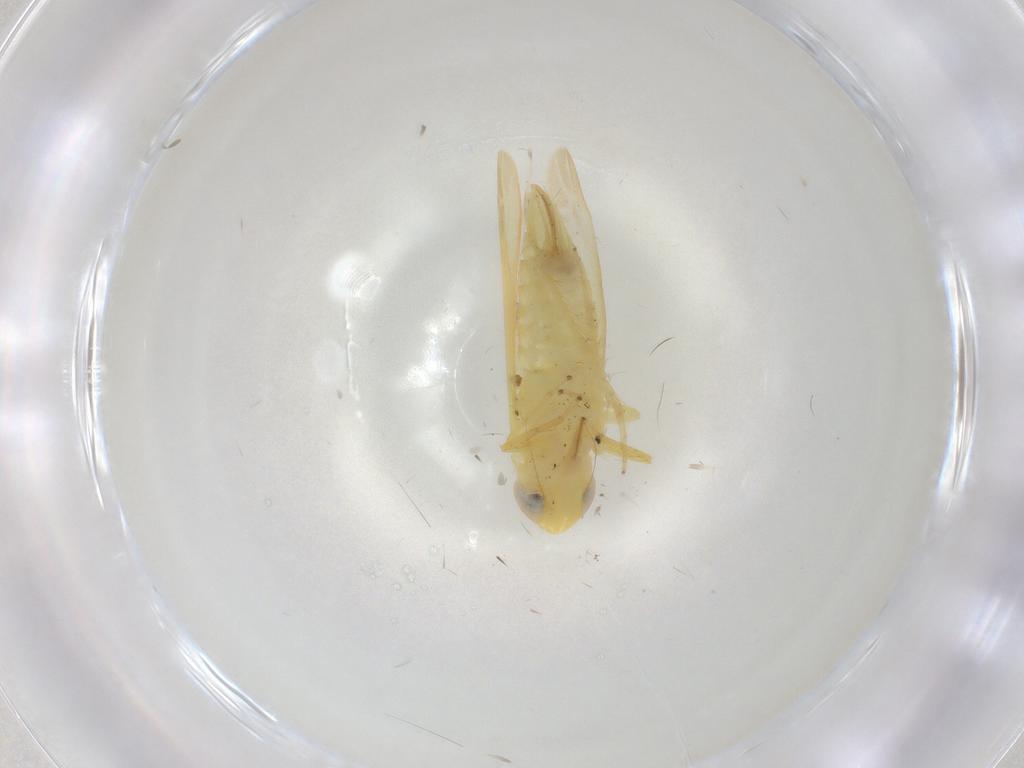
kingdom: Animalia
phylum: Arthropoda
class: Insecta
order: Hemiptera
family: Cicadellidae
